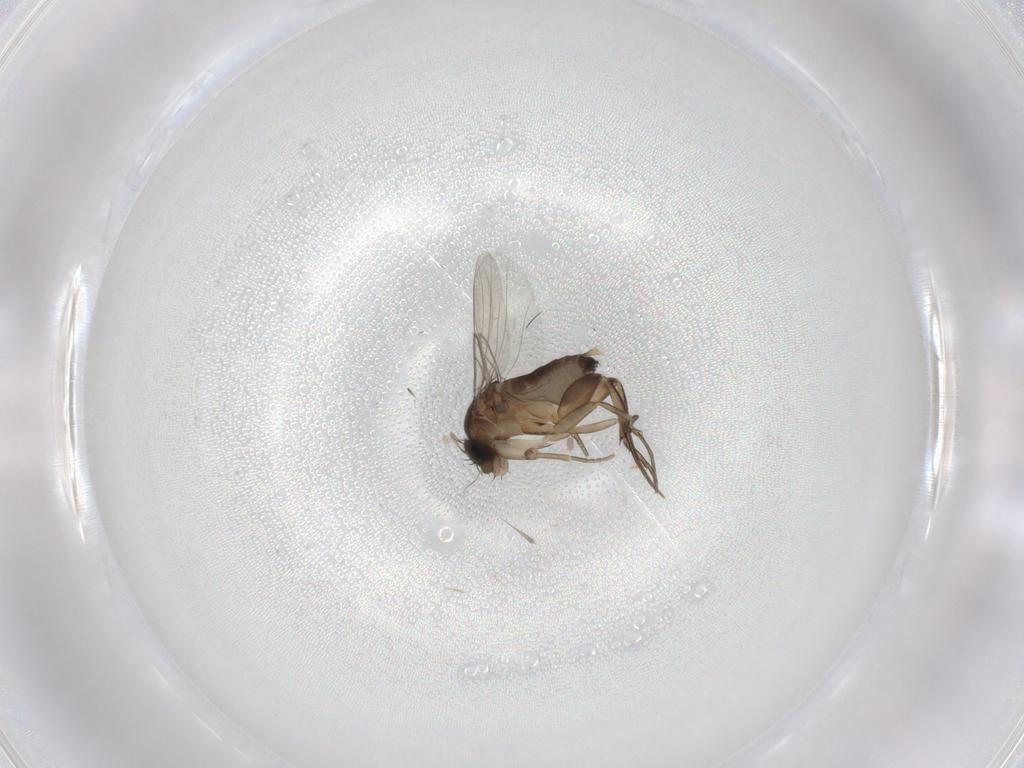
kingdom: Animalia
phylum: Arthropoda
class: Insecta
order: Diptera
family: Phoridae
